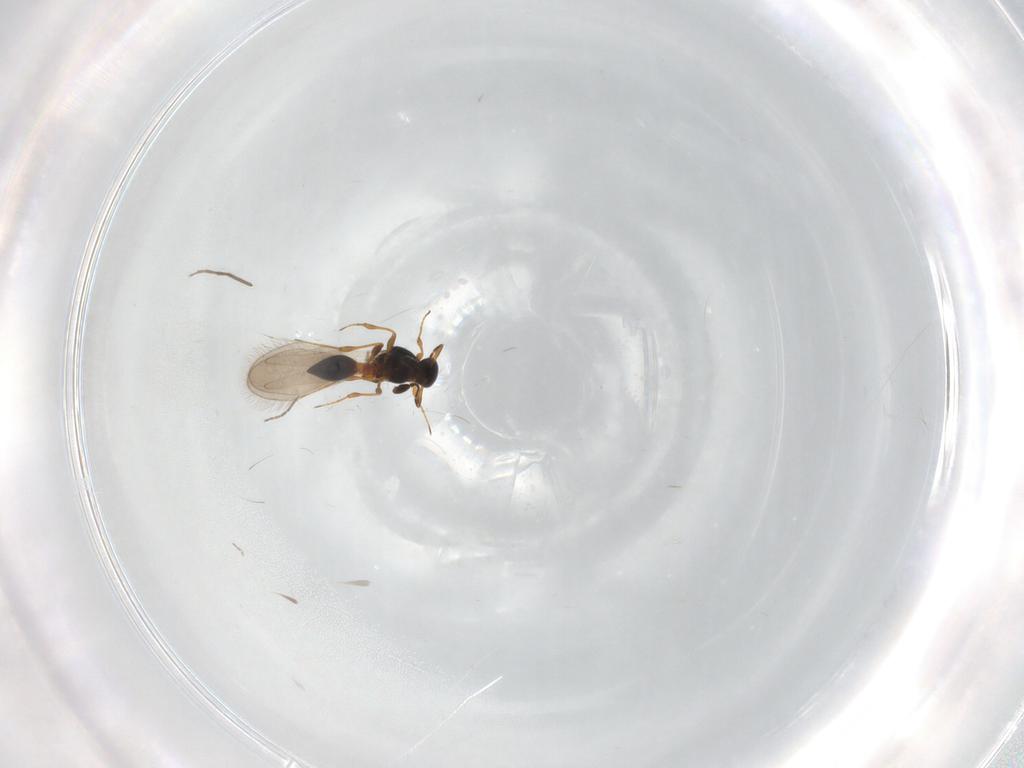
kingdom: Animalia
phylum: Arthropoda
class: Insecta
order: Hymenoptera
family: Platygastridae
